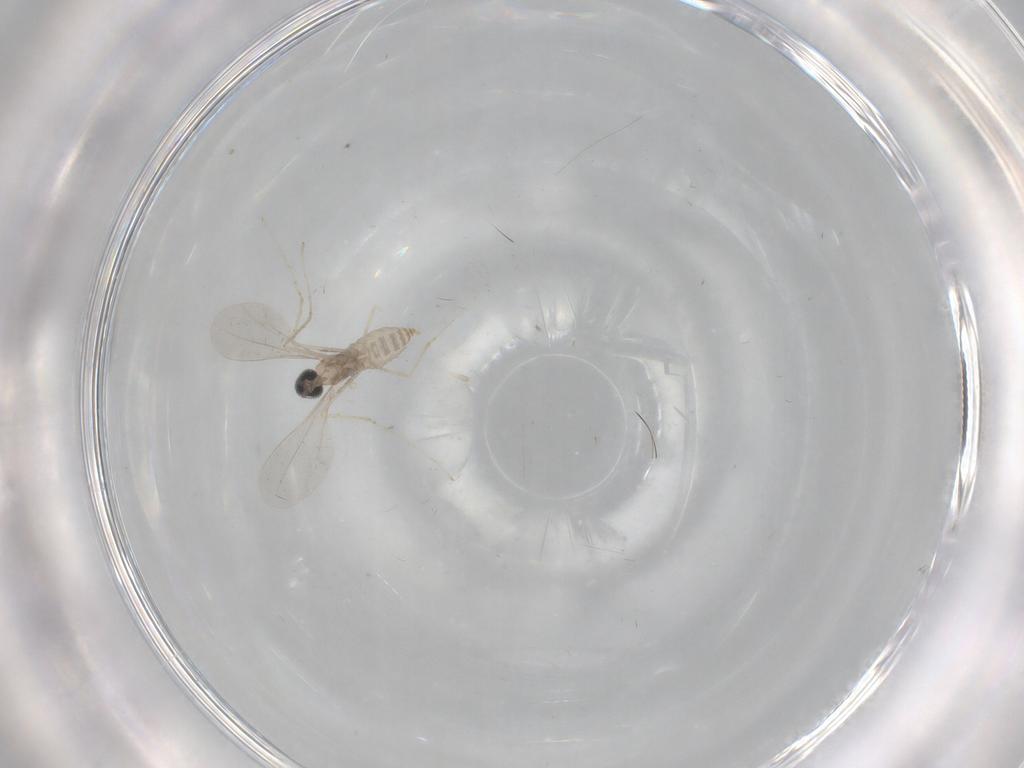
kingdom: Animalia
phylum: Arthropoda
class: Insecta
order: Diptera
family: Cecidomyiidae
